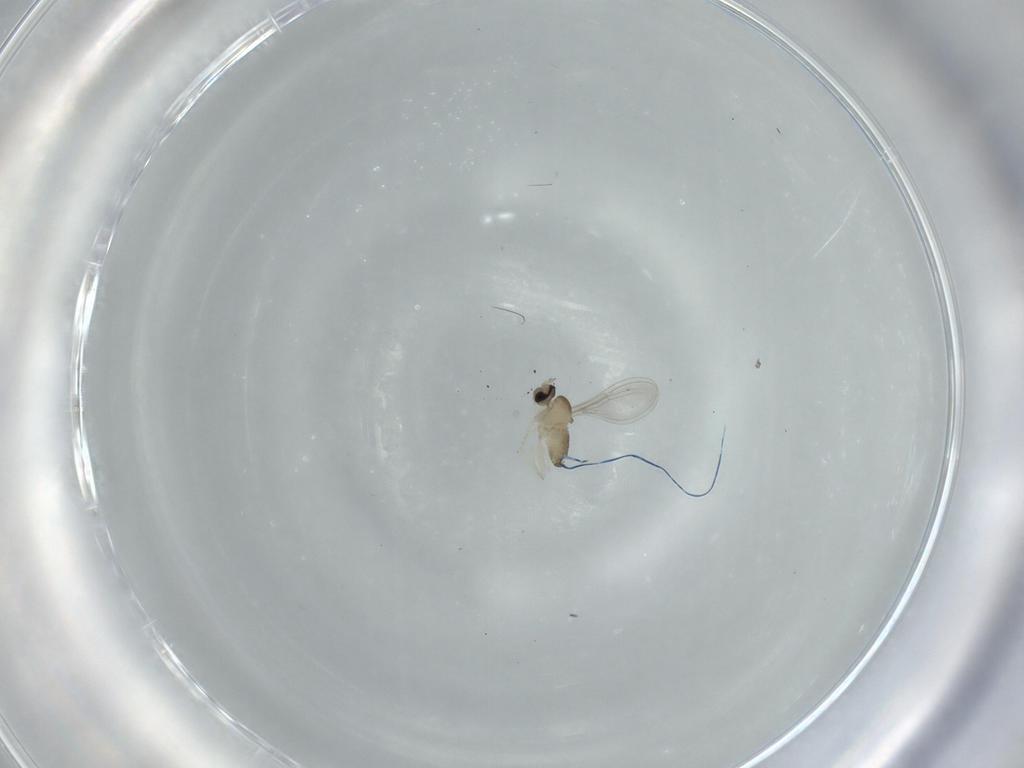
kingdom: Animalia
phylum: Arthropoda
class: Insecta
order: Diptera
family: Cecidomyiidae
